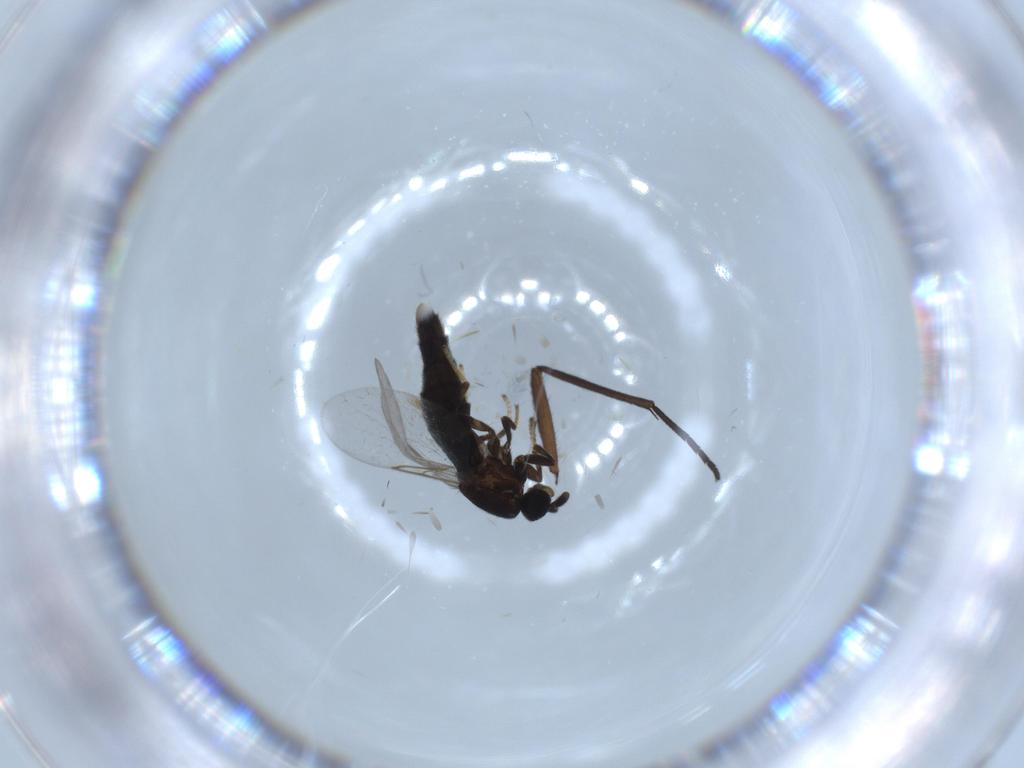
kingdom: Animalia
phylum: Arthropoda
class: Insecta
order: Diptera
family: Scatopsidae
